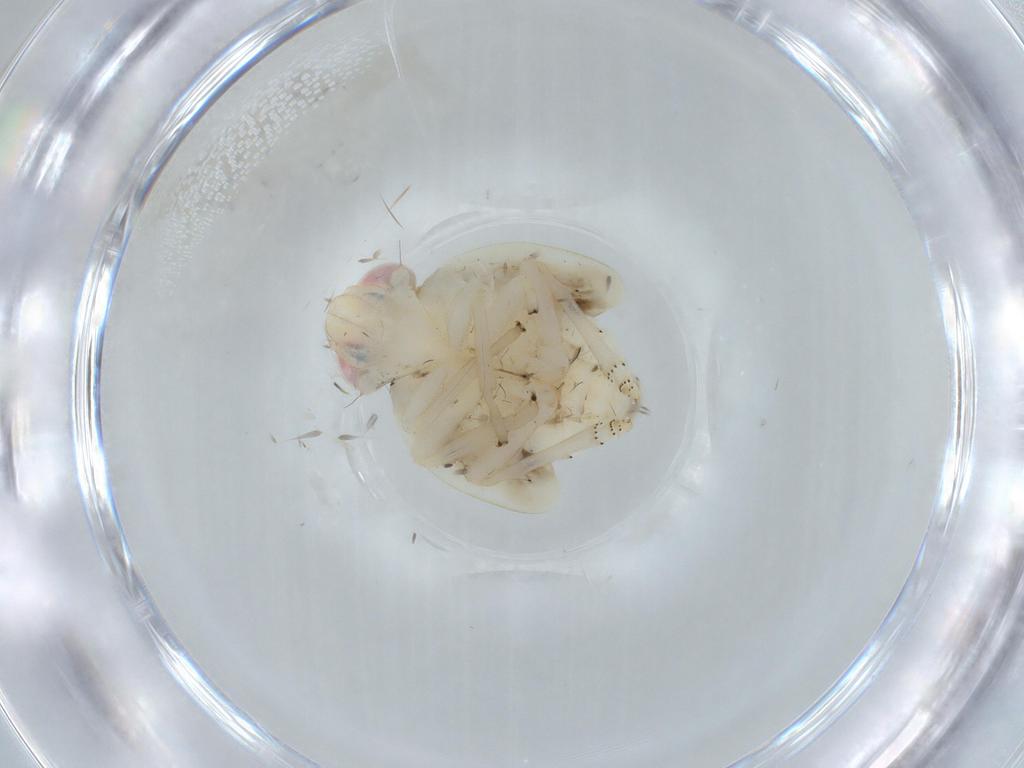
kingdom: Animalia
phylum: Arthropoda
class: Insecta
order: Hemiptera
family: Nogodinidae
